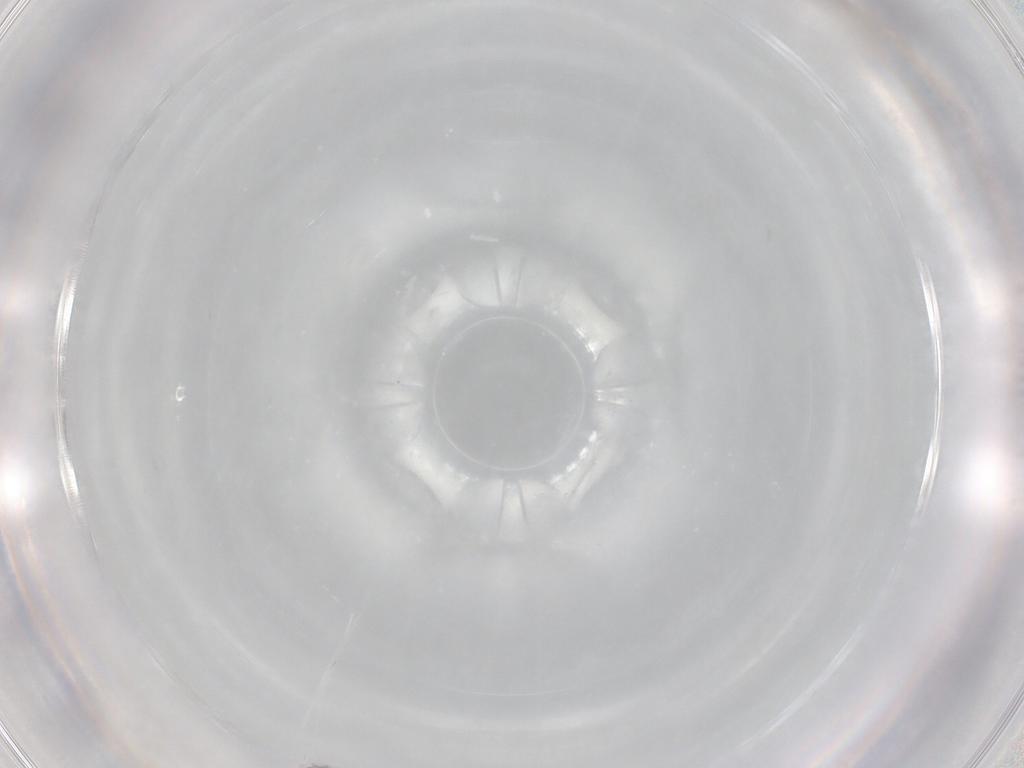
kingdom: Animalia
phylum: Arthropoda
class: Collembola
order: Entomobryomorpha
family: Entomobryidae
